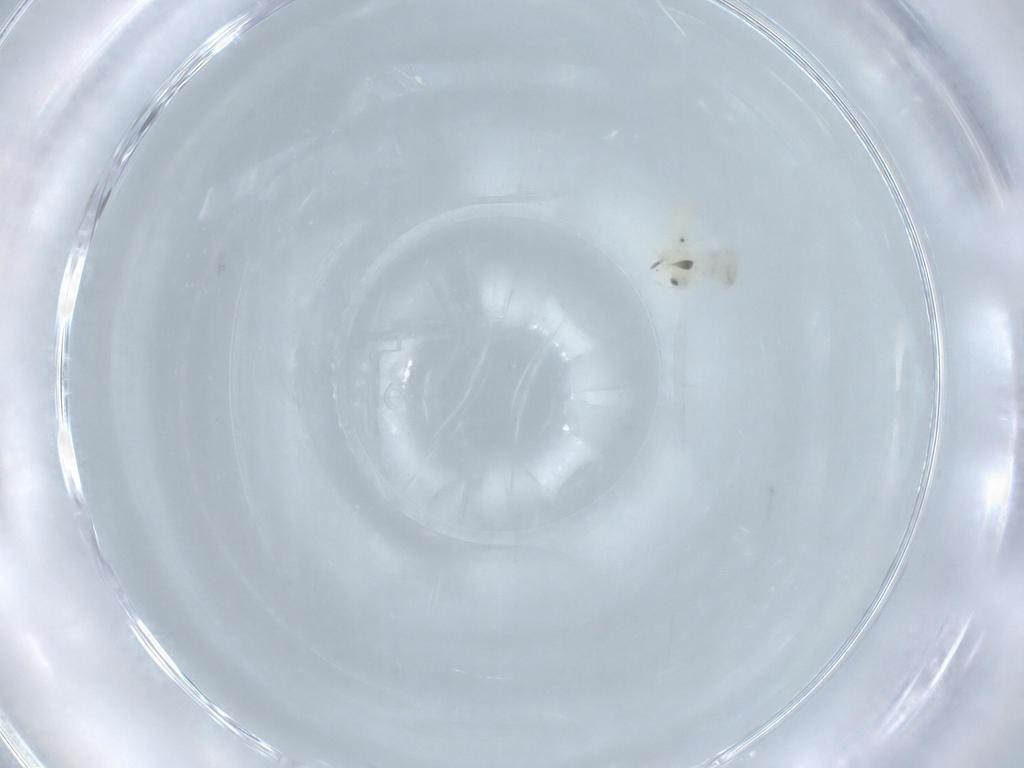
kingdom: Animalia
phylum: Arthropoda
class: Insecta
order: Hemiptera
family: Aleyrodidae
